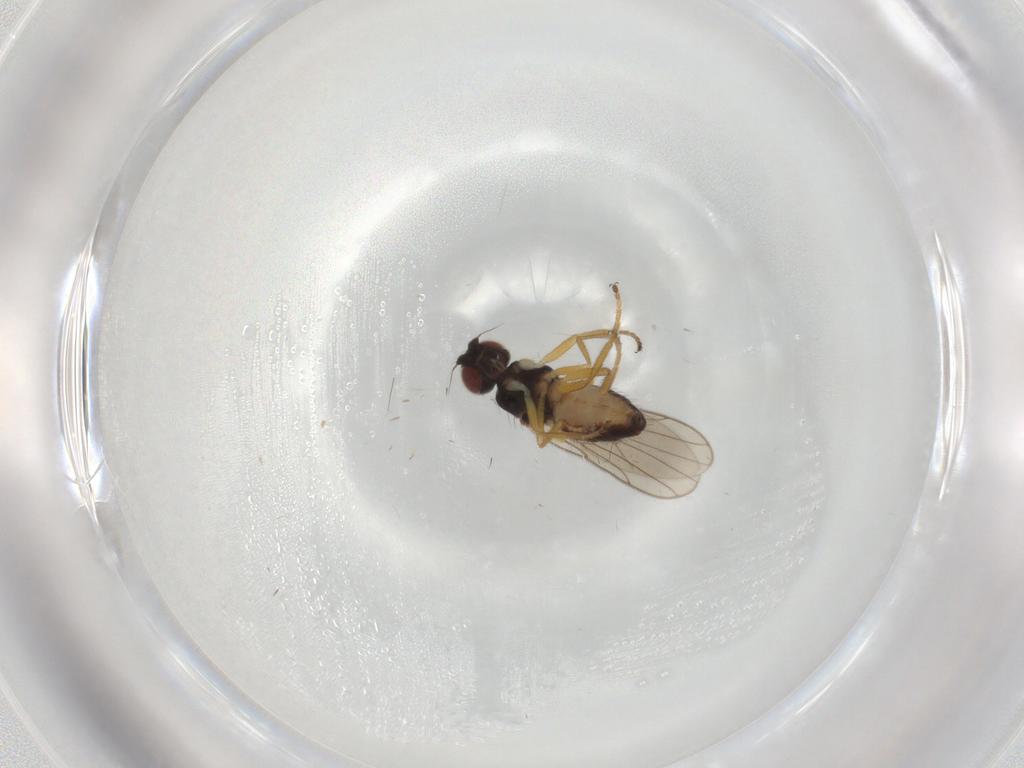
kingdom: Animalia
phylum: Arthropoda
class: Insecta
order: Diptera
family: Chloropidae
